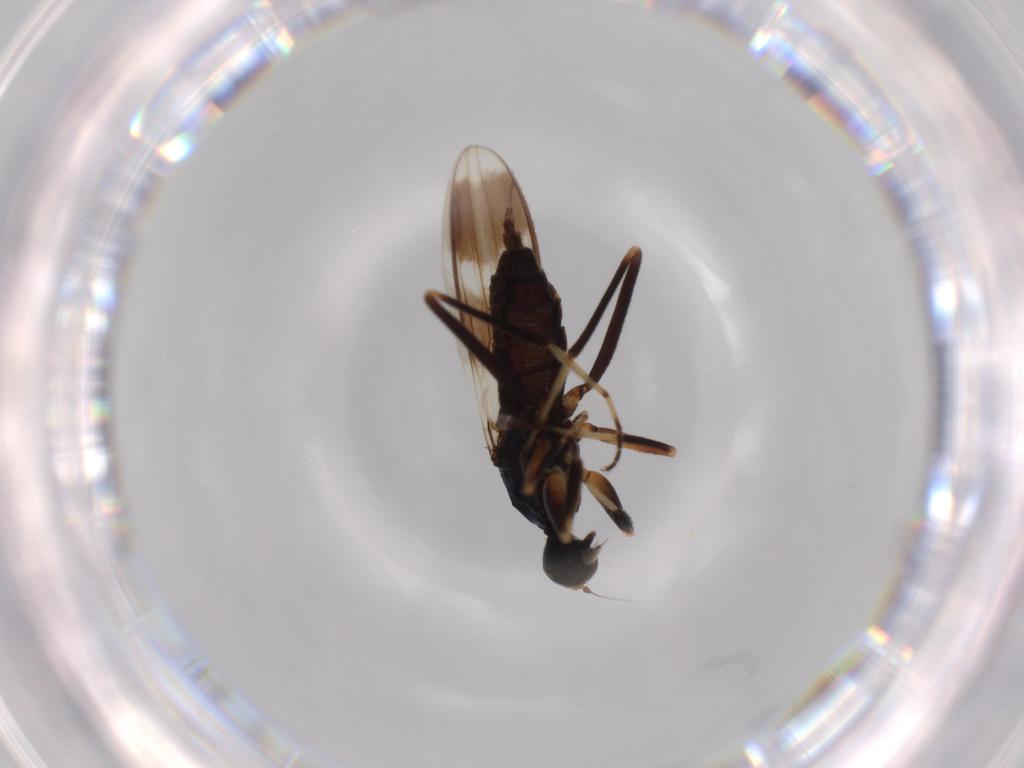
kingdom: Animalia
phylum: Arthropoda
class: Insecta
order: Diptera
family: Hybotidae
